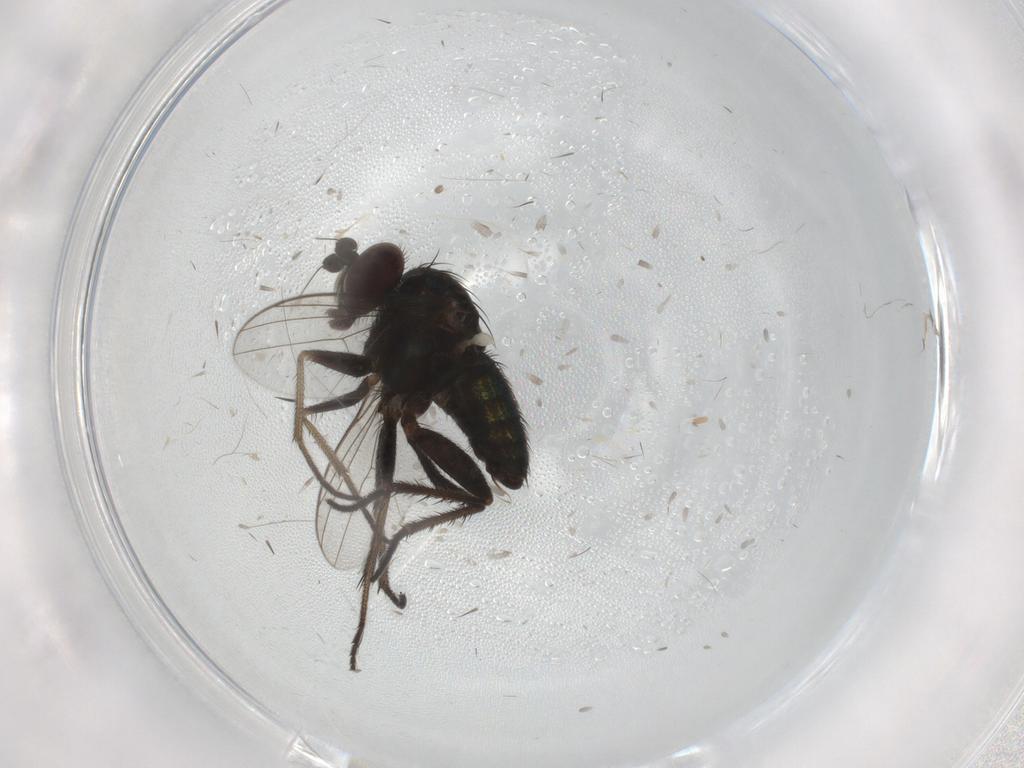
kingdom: Animalia
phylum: Arthropoda
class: Insecta
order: Diptera
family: Dolichopodidae
